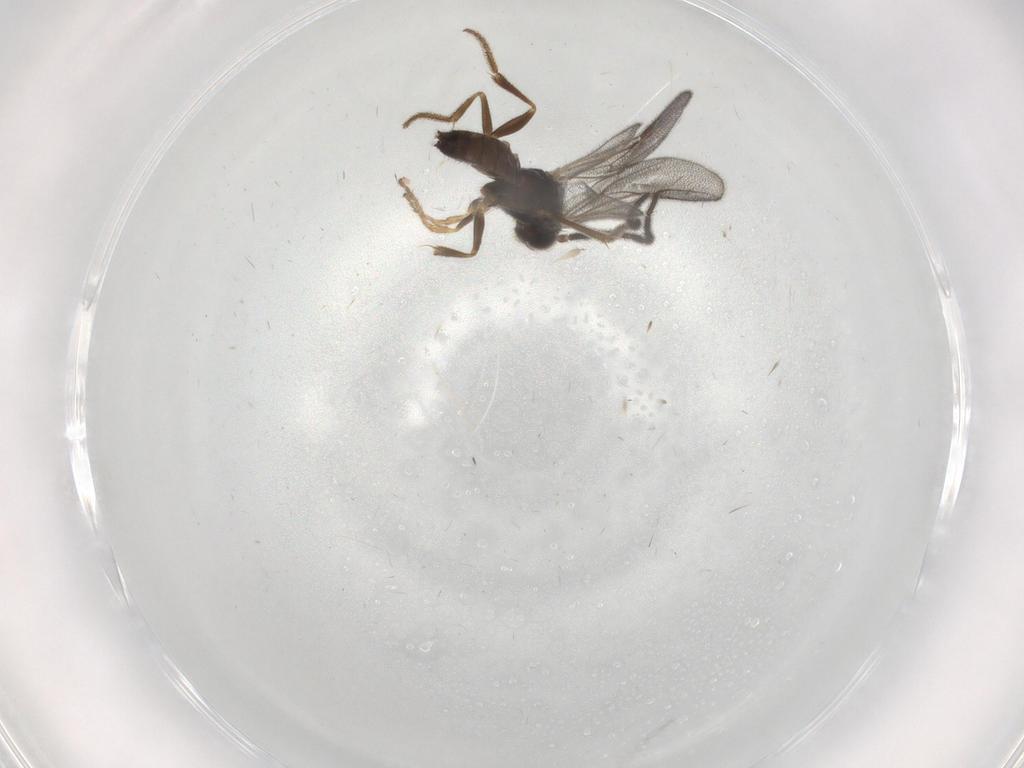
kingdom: Animalia
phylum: Arthropoda
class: Insecta
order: Hymenoptera
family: Dryinidae
